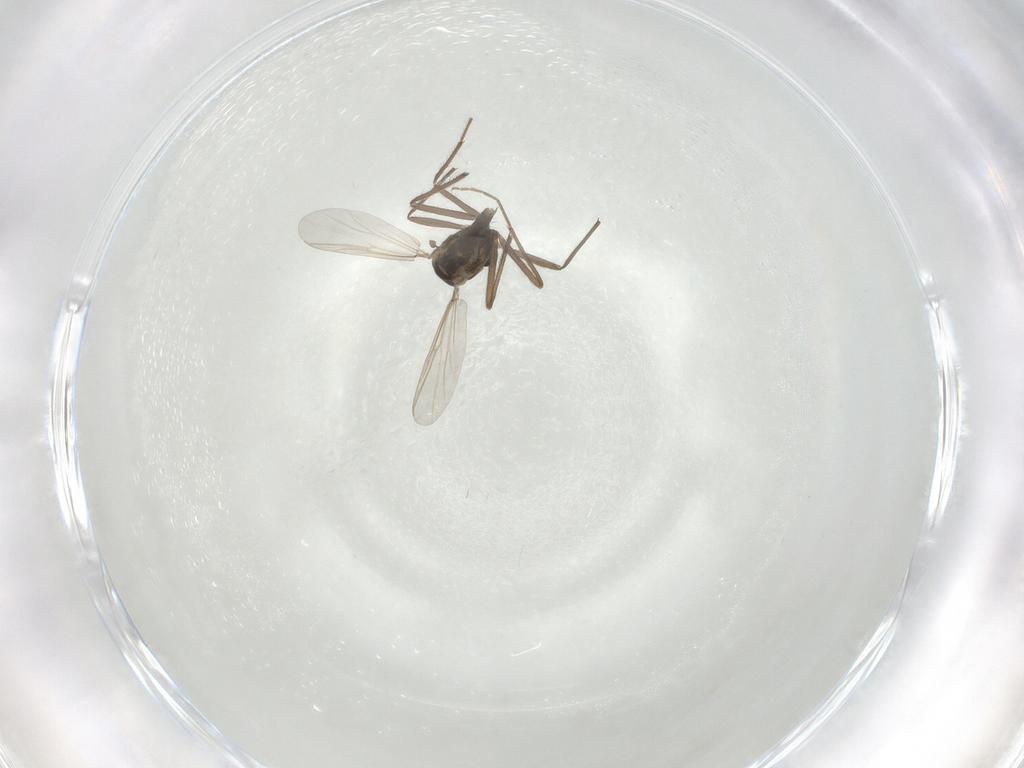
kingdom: Animalia
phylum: Arthropoda
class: Insecta
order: Diptera
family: Chironomidae
